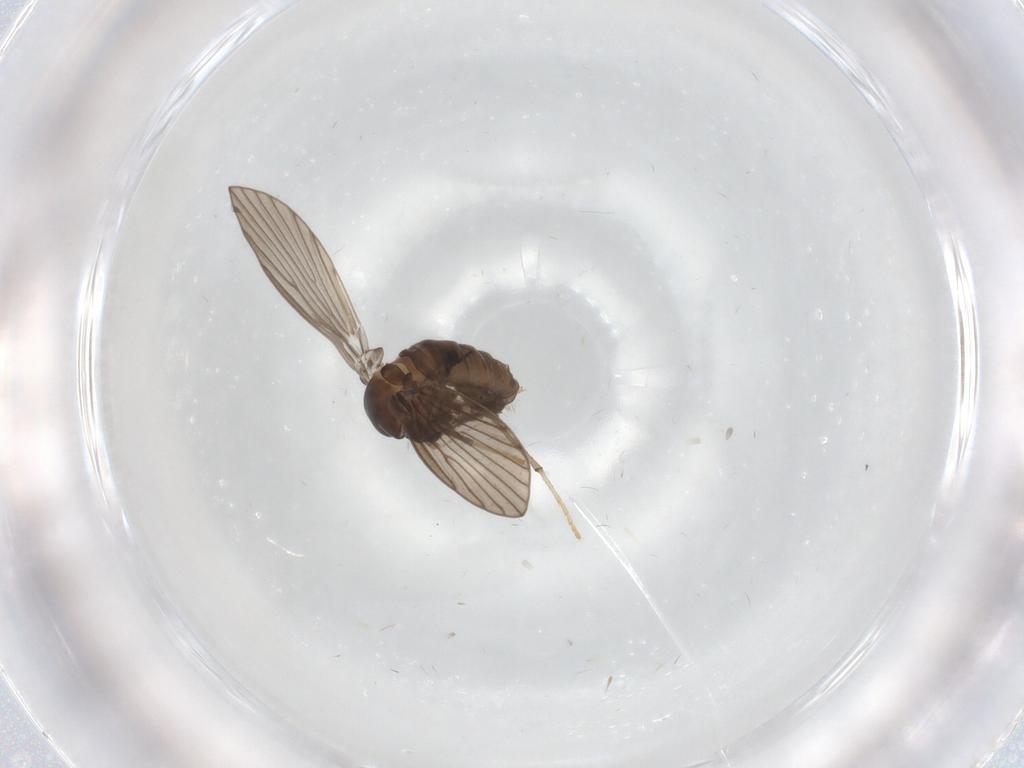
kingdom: Animalia
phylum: Arthropoda
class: Insecta
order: Diptera
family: Psychodidae
